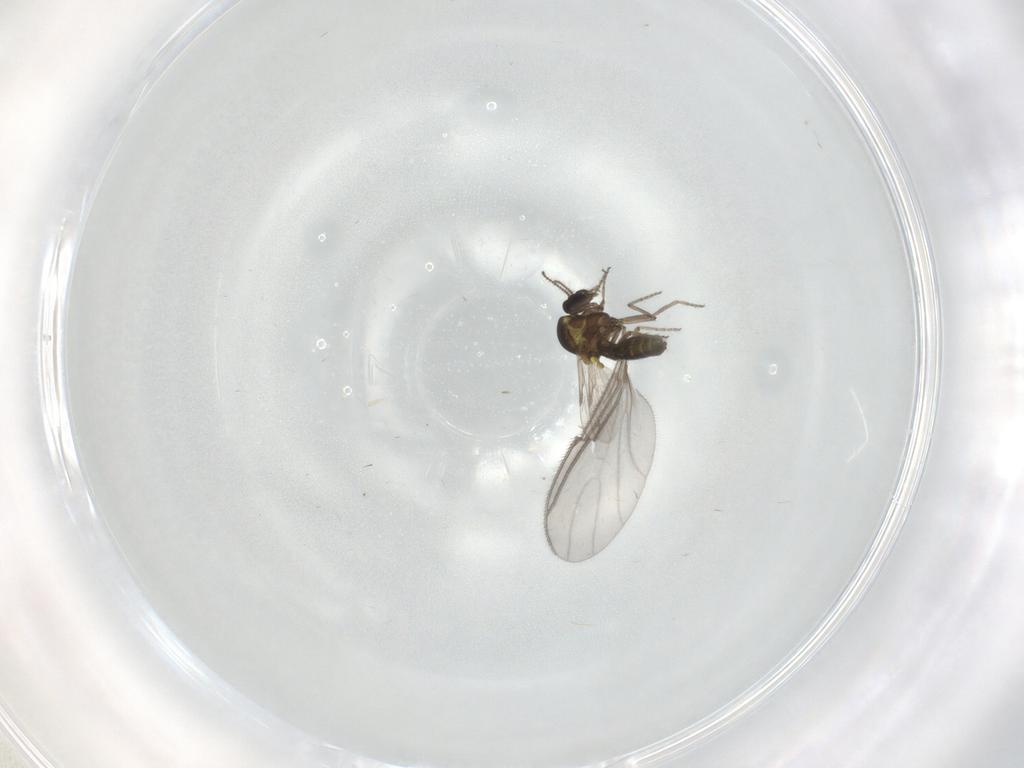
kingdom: Animalia
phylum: Arthropoda
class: Insecta
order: Diptera
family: Ceratopogonidae
